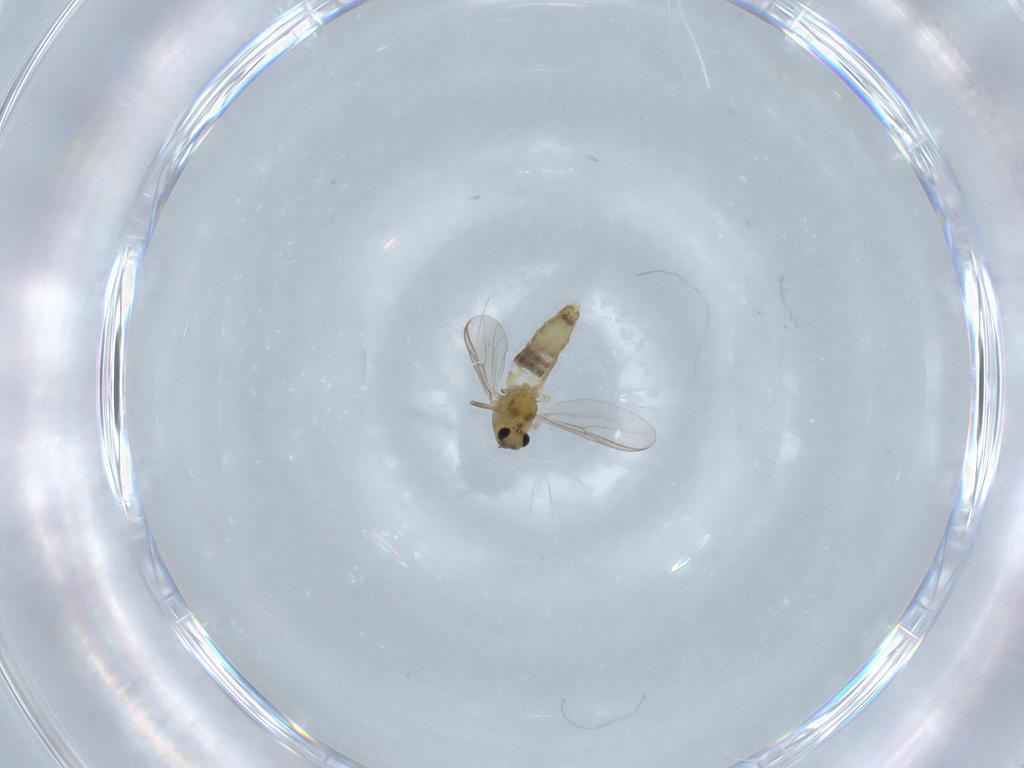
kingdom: Animalia
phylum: Arthropoda
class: Insecta
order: Diptera
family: Chironomidae
